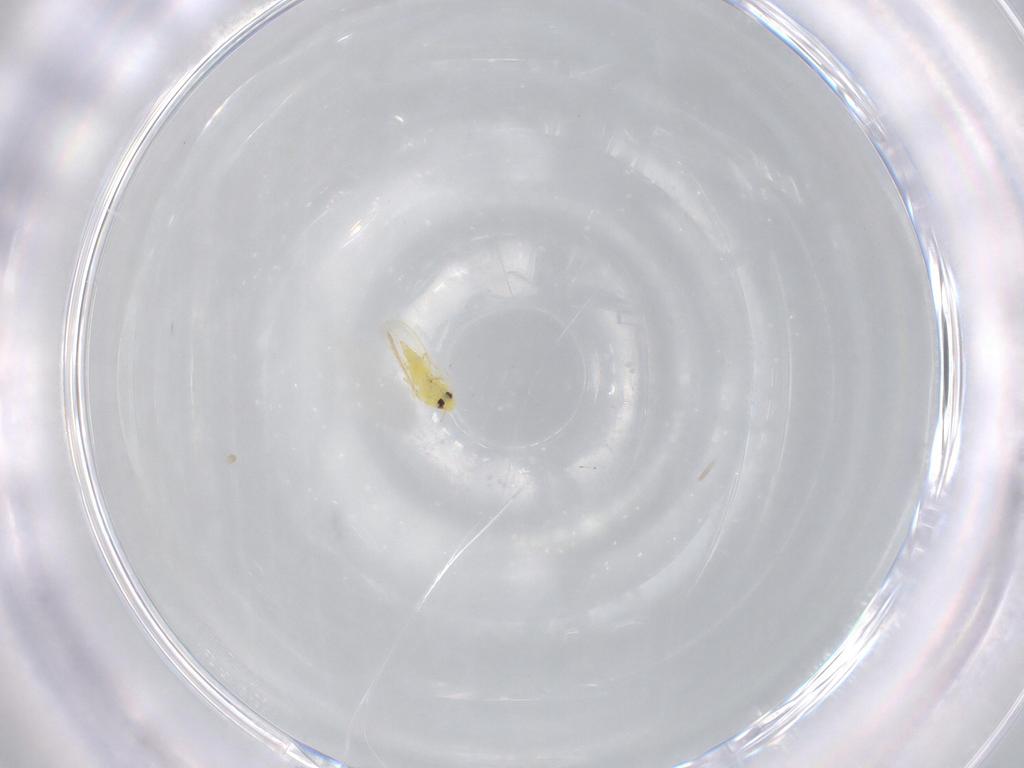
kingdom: Animalia
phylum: Arthropoda
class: Insecta
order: Hemiptera
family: Aleyrodidae
